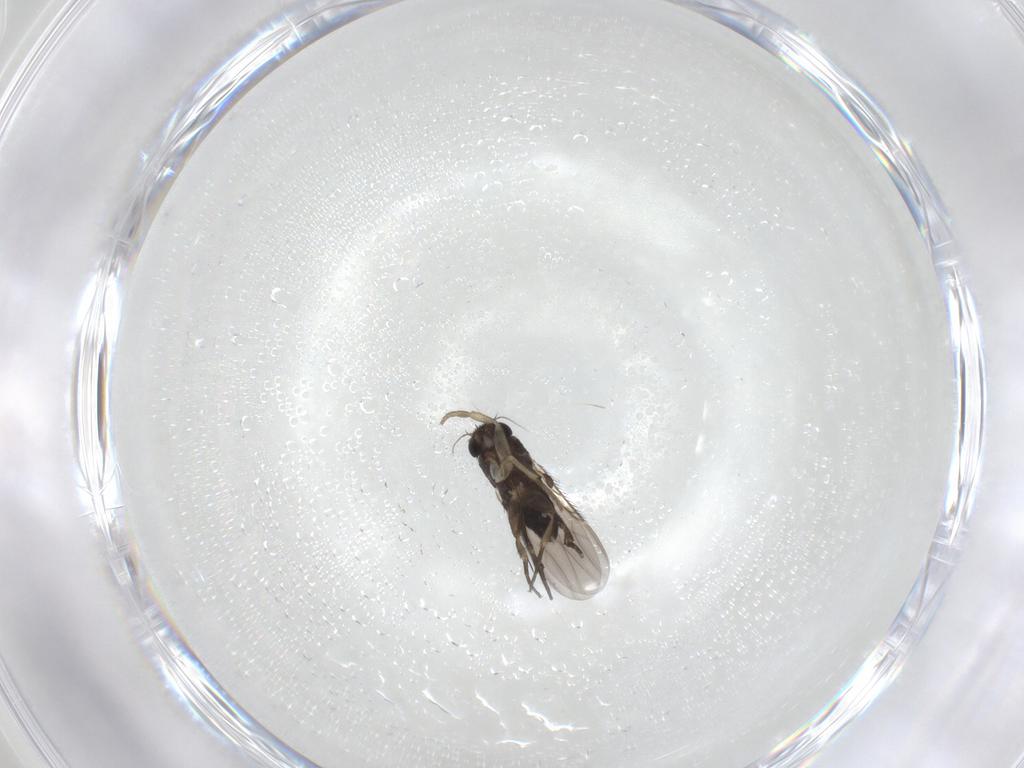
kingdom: Animalia
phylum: Arthropoda
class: Insecta
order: Diptera
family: Phoridae
